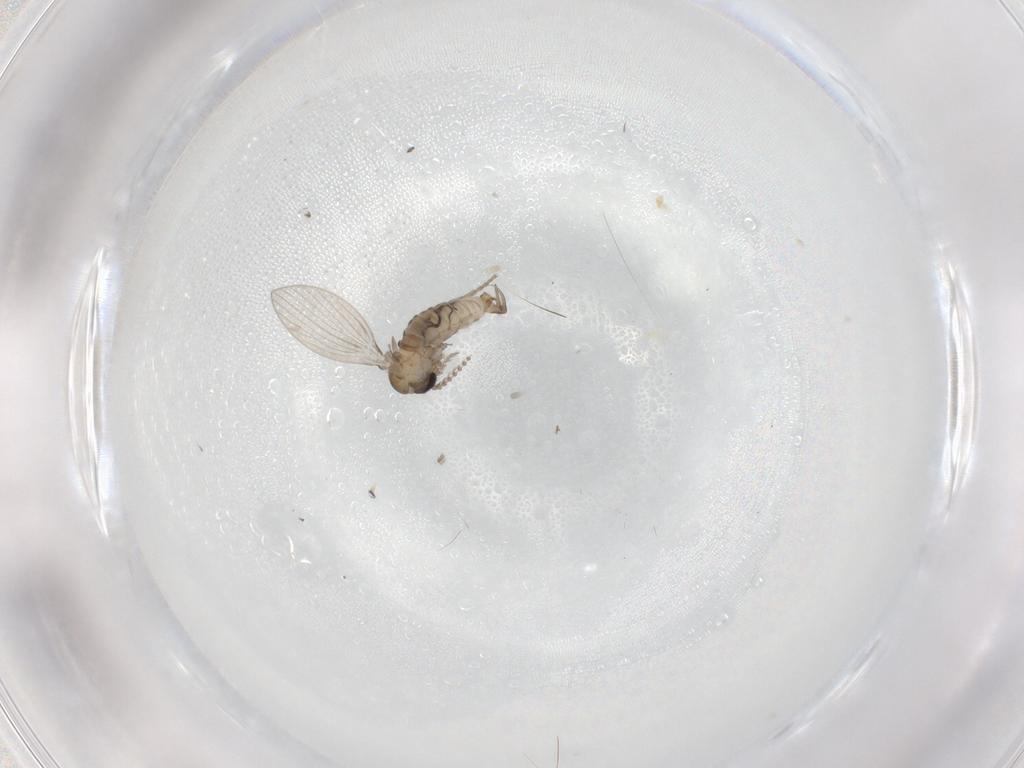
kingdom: Animalia
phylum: Arthropoda
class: Insecta
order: Diptera
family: Psychodidae
